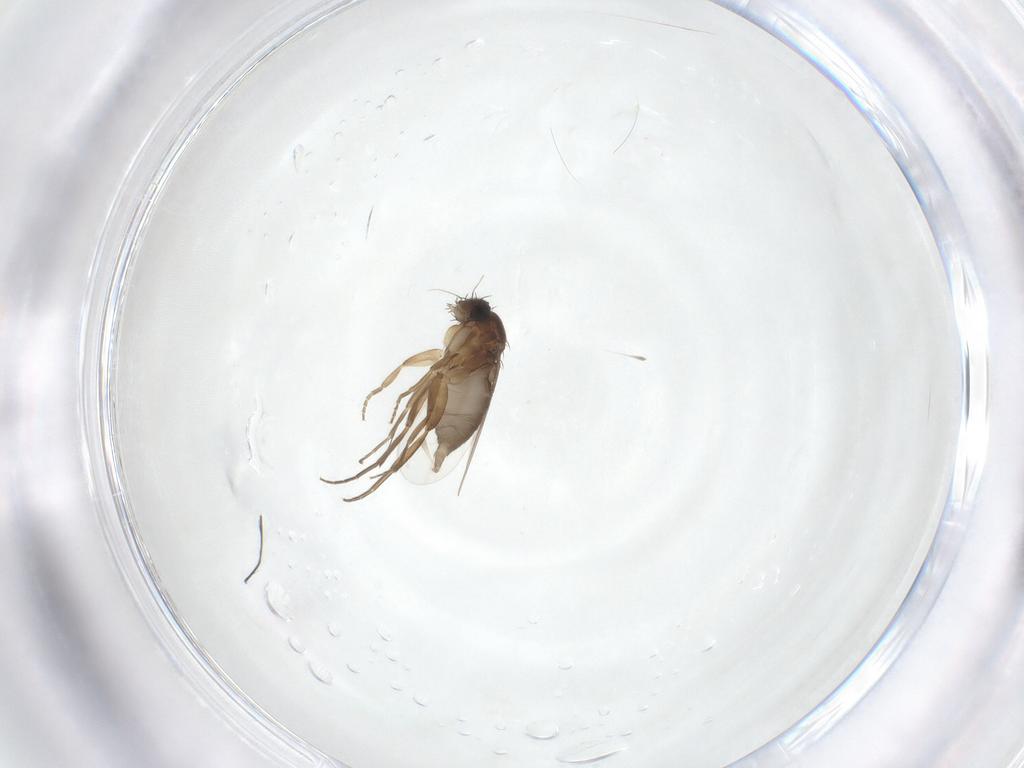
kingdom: Animalia
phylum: Arthropoda
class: Insecta
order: Diptera
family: Phoridae
